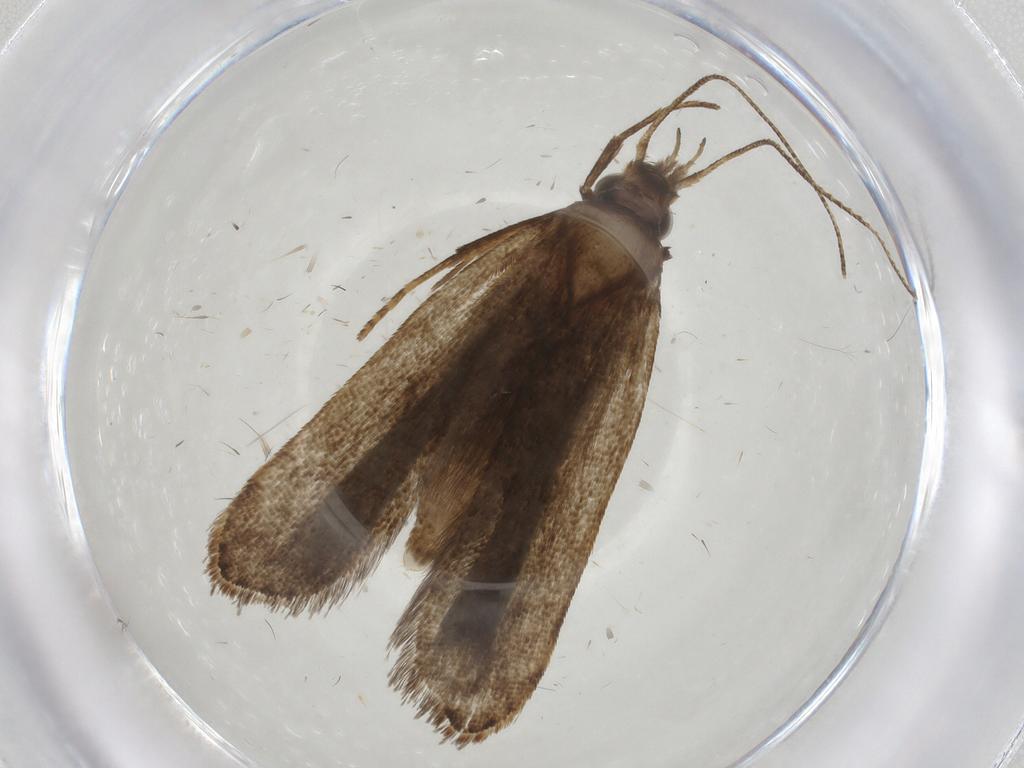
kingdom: Animalia
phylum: Arthropoda
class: Insecta
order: Lepidoptera
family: Gelechiidae
